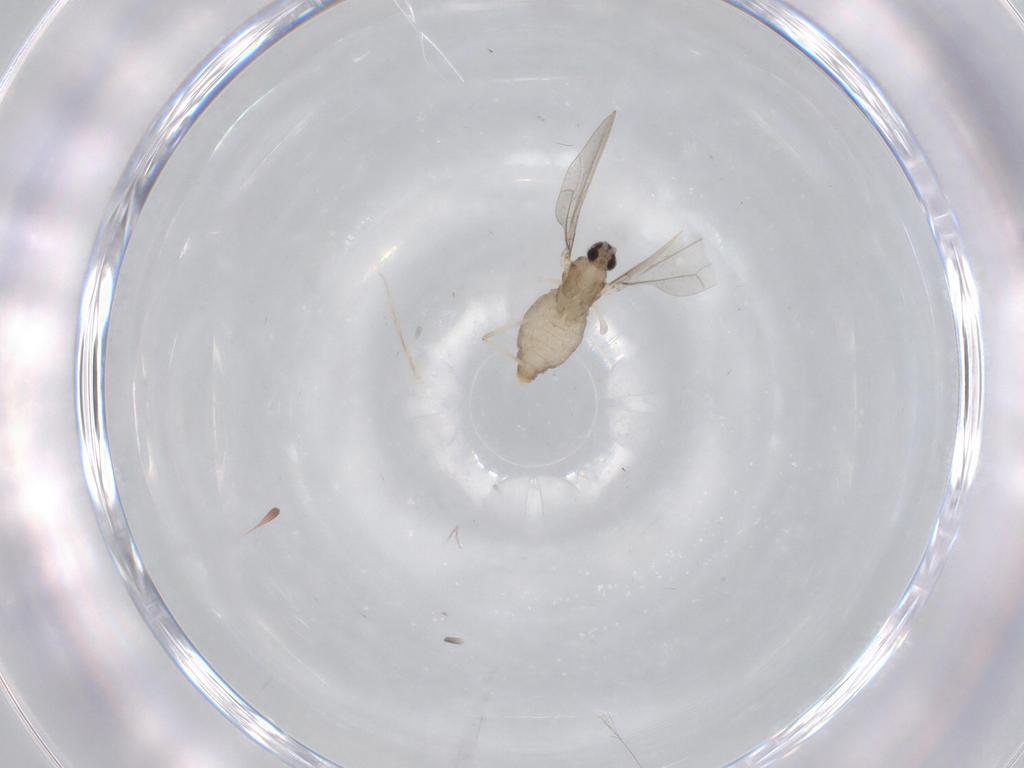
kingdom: Animalia
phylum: Arthropoda
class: Insecta
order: Diptera
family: Cecidomyiidae
